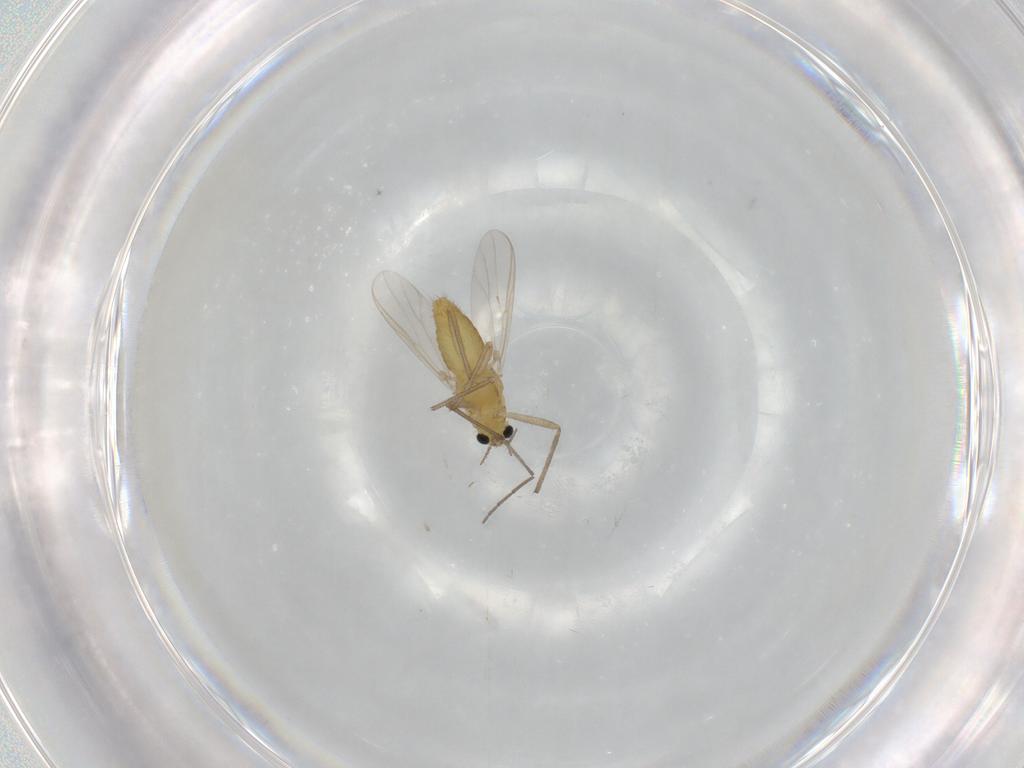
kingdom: Animalia
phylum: Arthropoda
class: Insecta
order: Diptera
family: Chironomidae
